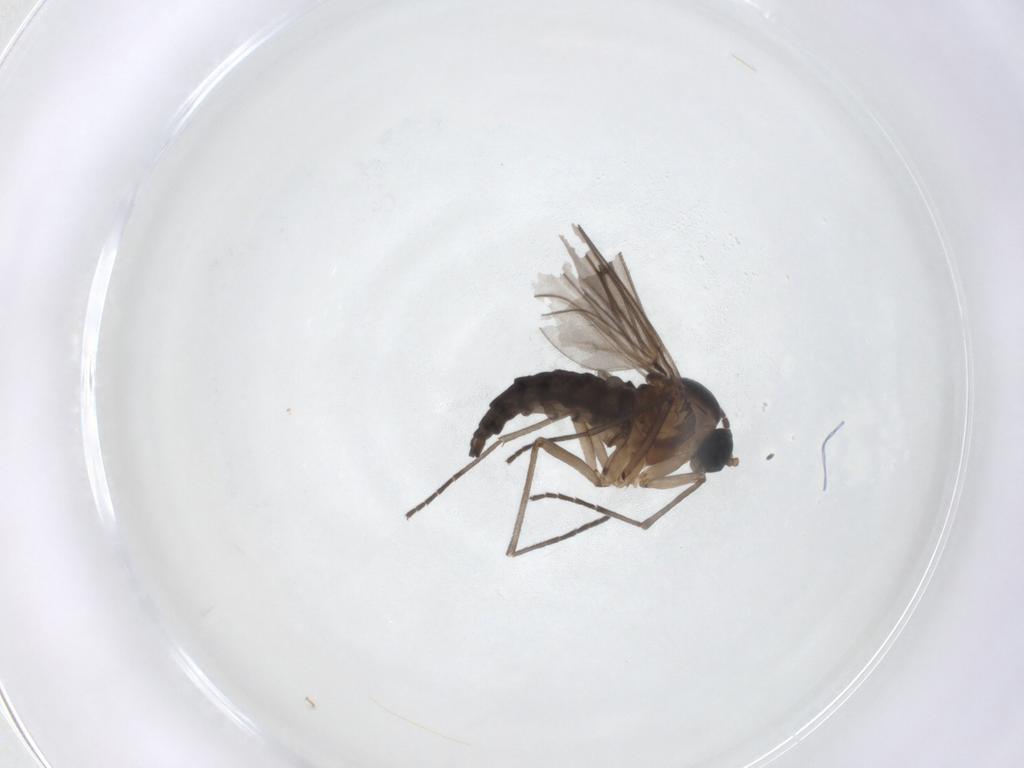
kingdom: Animalia
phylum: Arthropoda
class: Insecta
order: Diptera
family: Sciaridae
